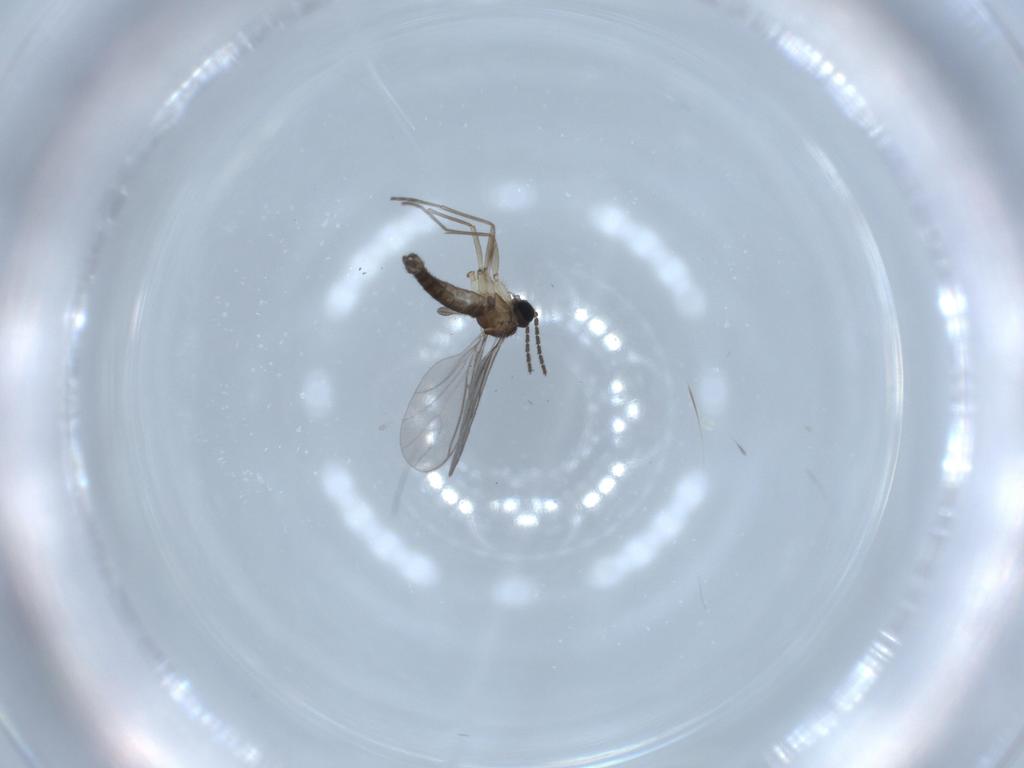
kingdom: Animalia
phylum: Arthropoda
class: Insecta
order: Diptera
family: Sciaridae
